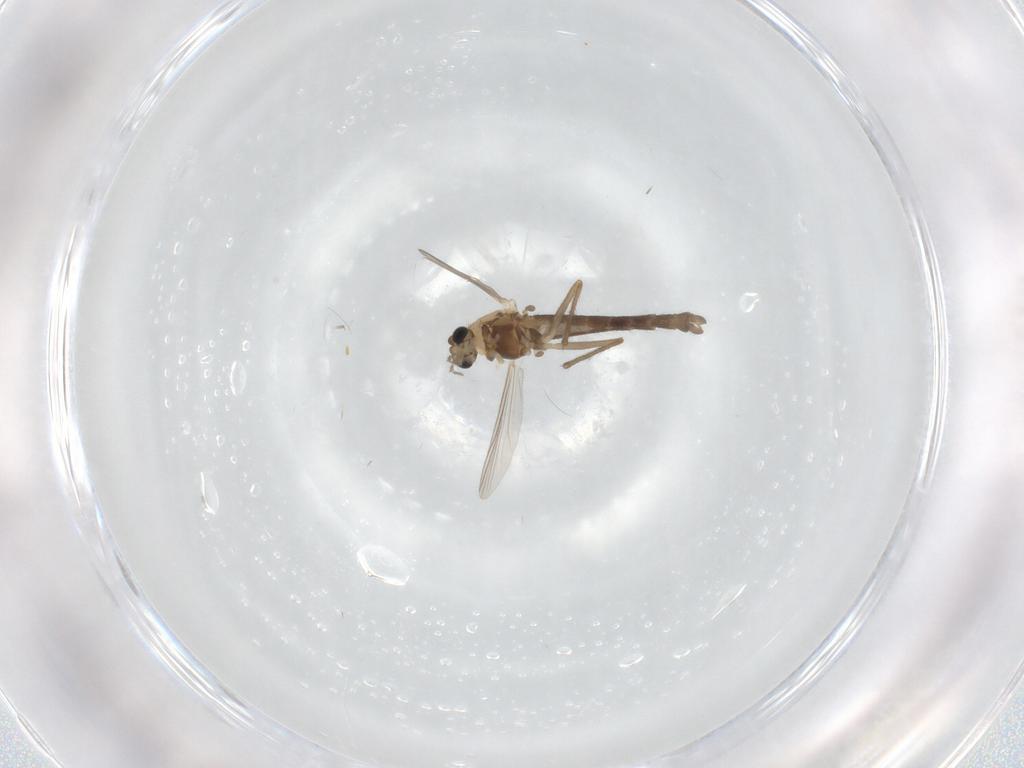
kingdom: Animalia
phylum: Arthropoda
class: Insecta
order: Diptera
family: Chironomidae
